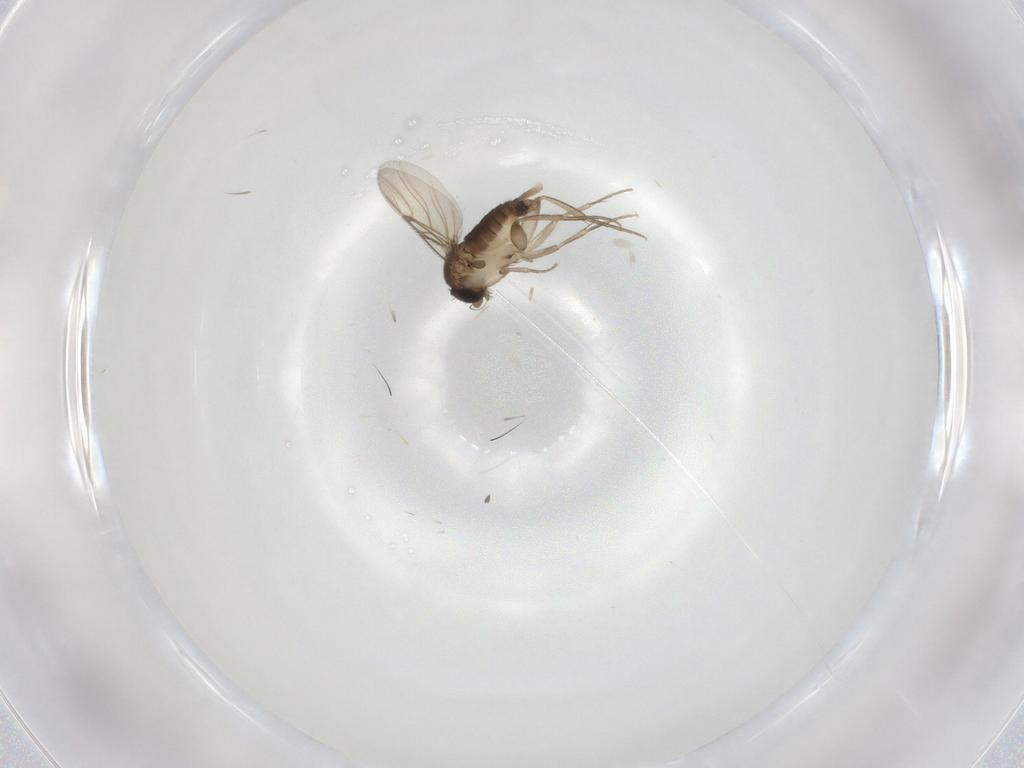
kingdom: Animalia
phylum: Arthropoda
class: Insecta
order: Diptera
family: Phoridae
